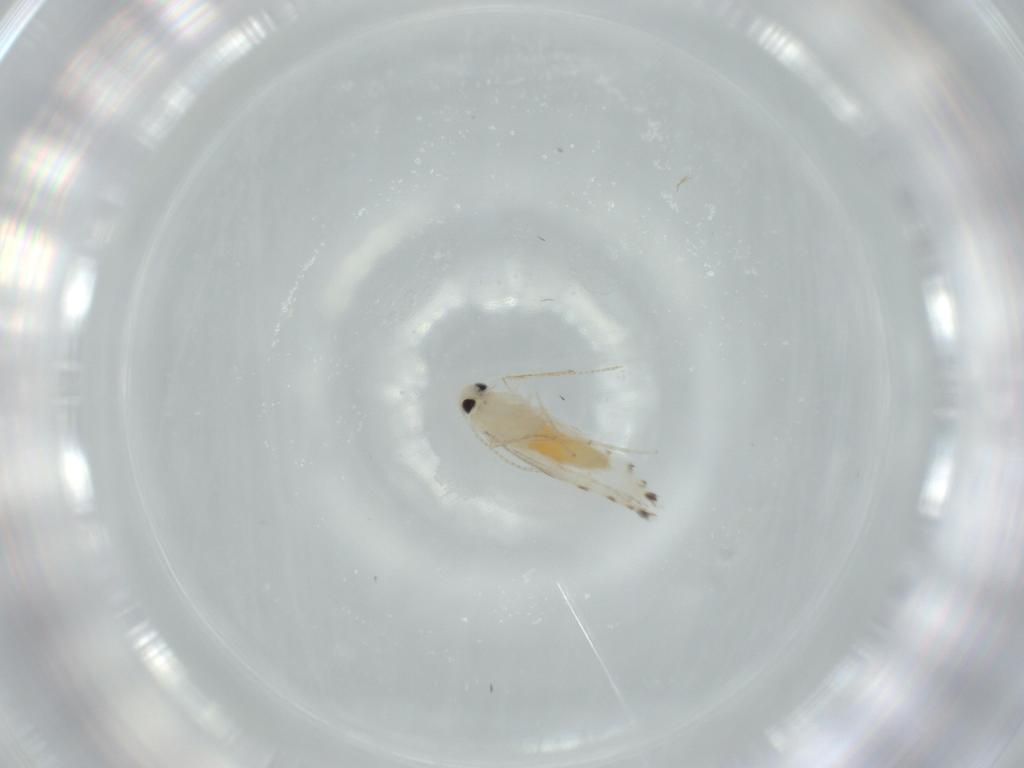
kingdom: Animalia
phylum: Arthropoda
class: Insecta
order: Lepidoptera
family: Gracillariidae
